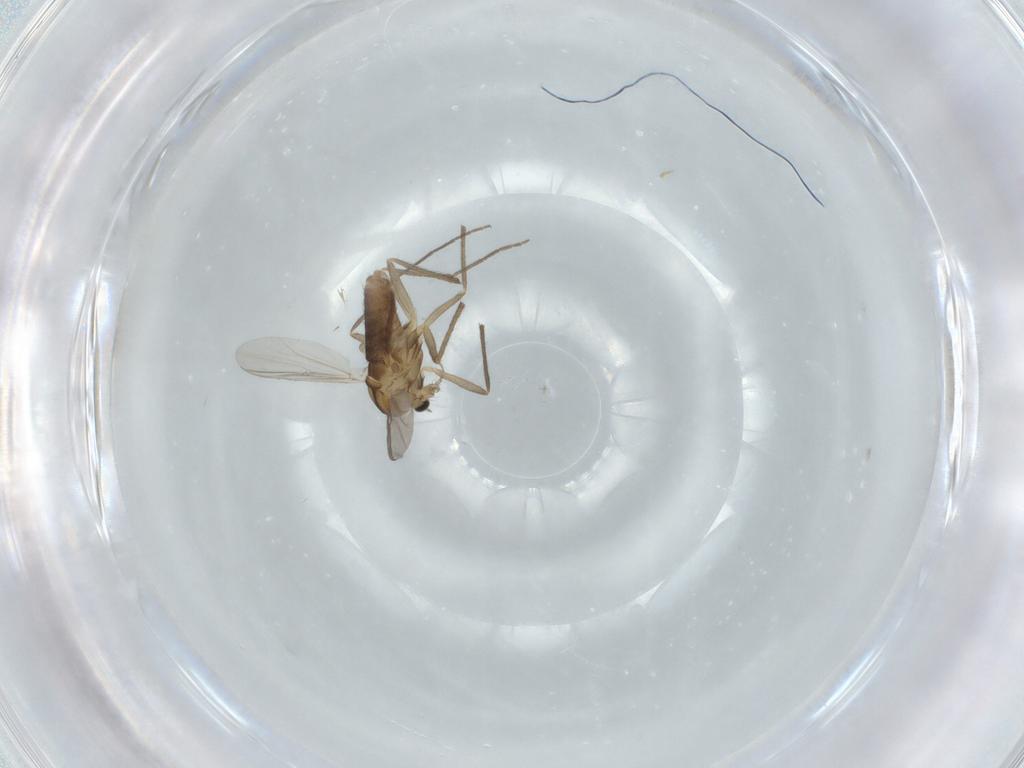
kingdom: Animalia
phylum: Arthropoda
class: Insecta
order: Diptera
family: Chironomidae
